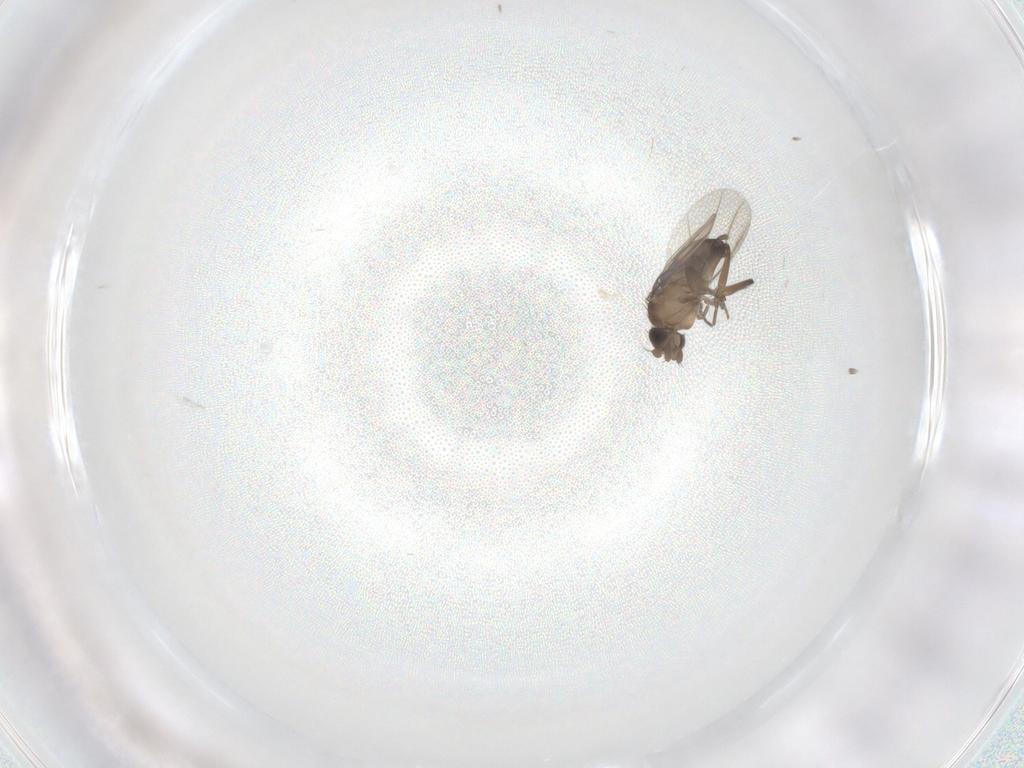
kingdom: Animalia
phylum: Arthropoda
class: Insecta
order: Diptera
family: Phoridae
